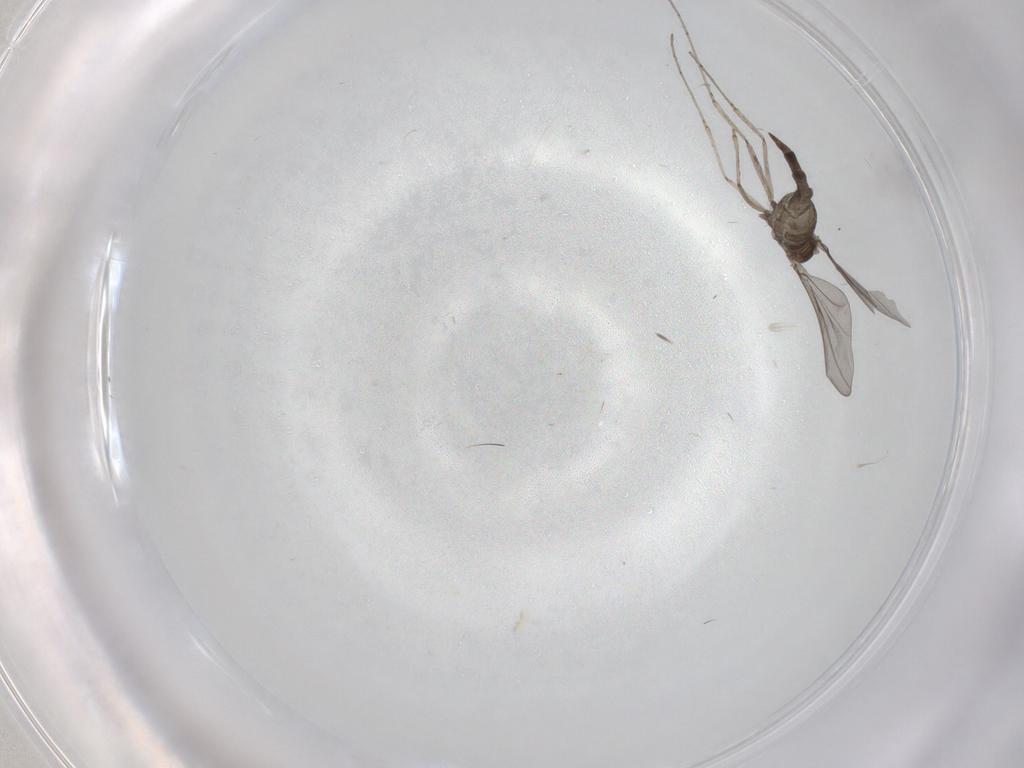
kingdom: Animalia
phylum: Arthropoda
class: Insecta
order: Diptera
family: Chironomidae
